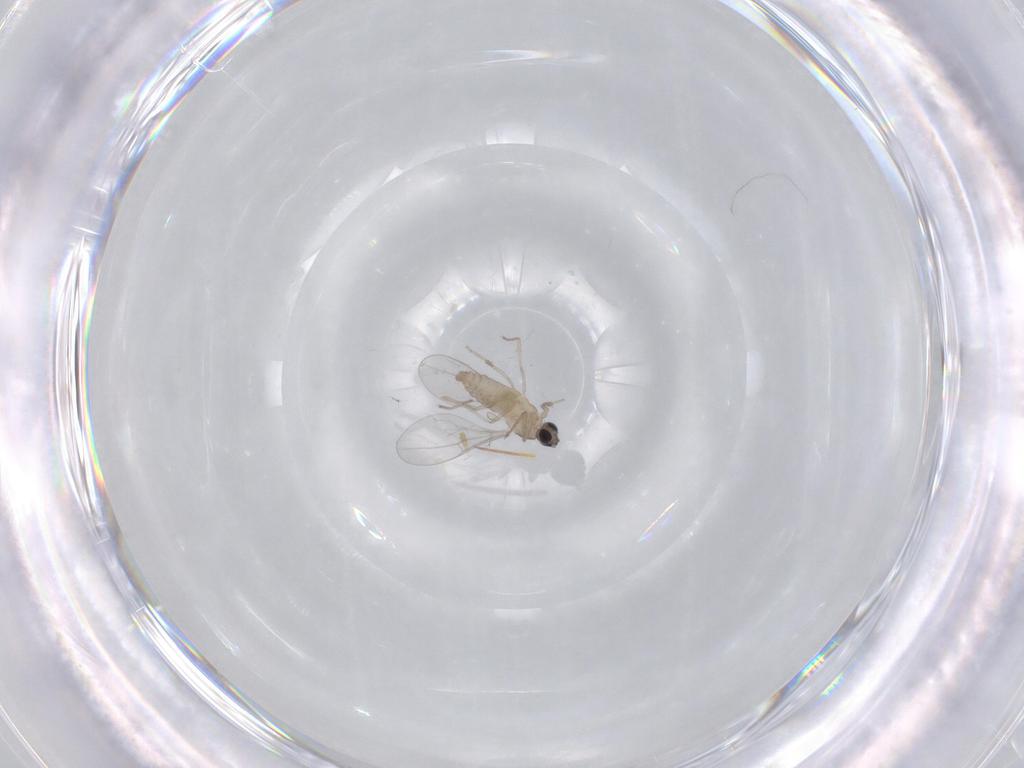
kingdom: Animalia
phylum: Arthropoda
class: Insecta
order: Diptera
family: Cecidomyiidae
